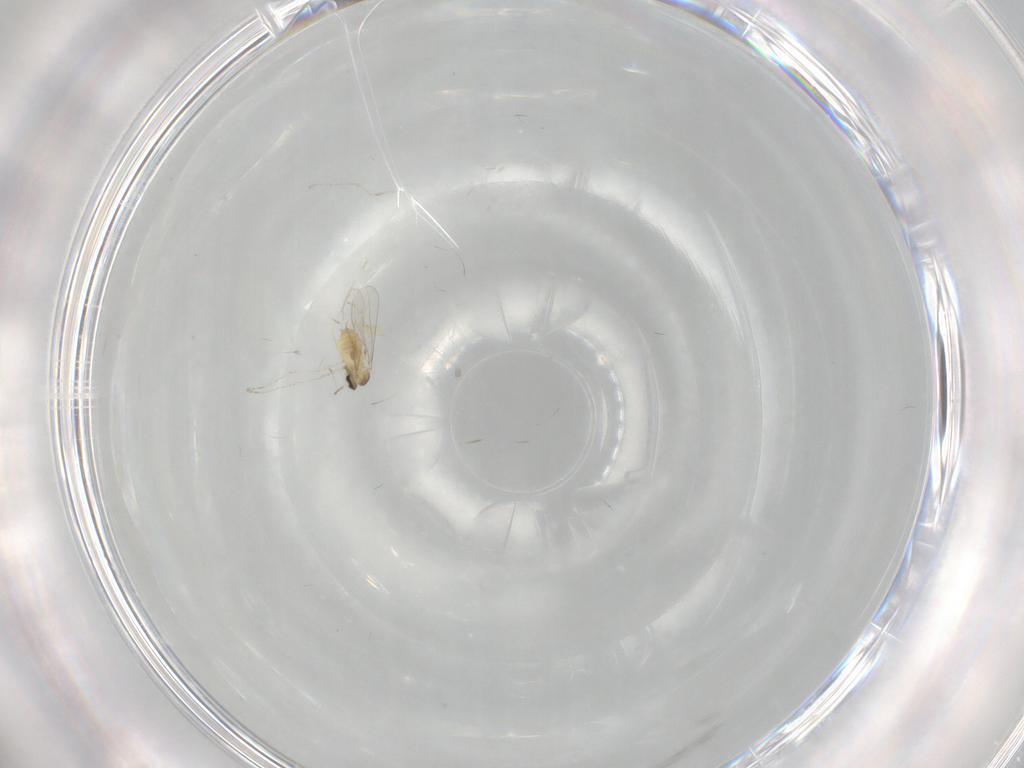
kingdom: Animalia
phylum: Arthropoda
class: Insecta
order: Diptera
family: Cecidomyiidae
